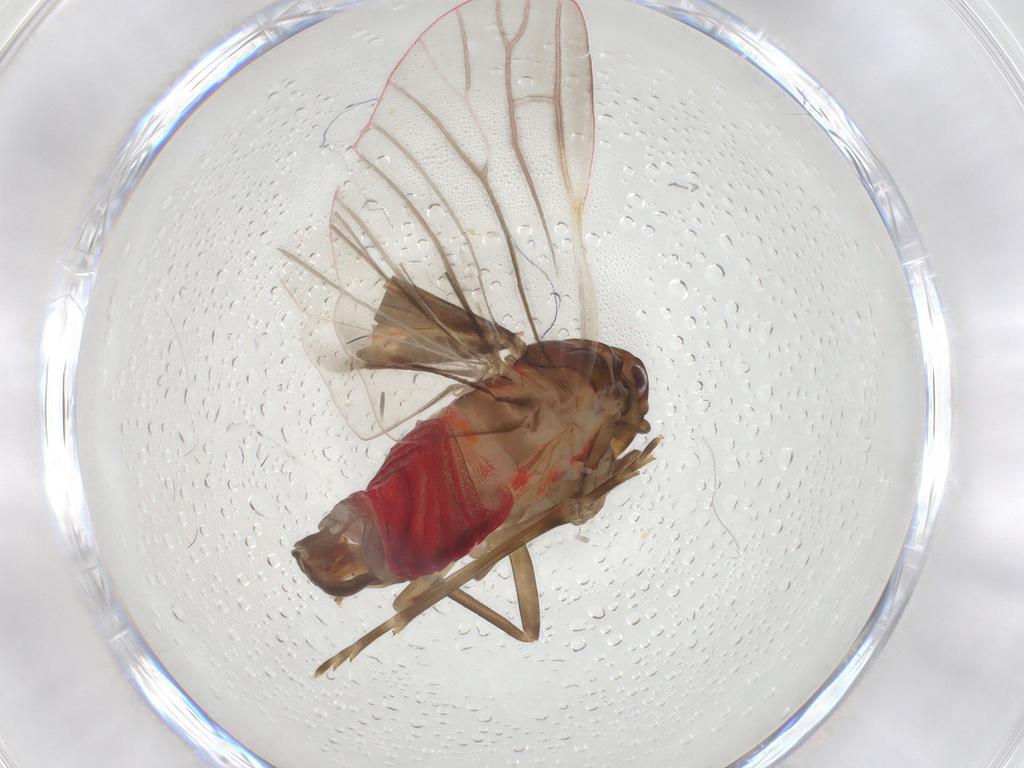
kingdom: Animalia
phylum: Arthropoda
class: Insecta
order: Hemiptera
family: Achilidae
